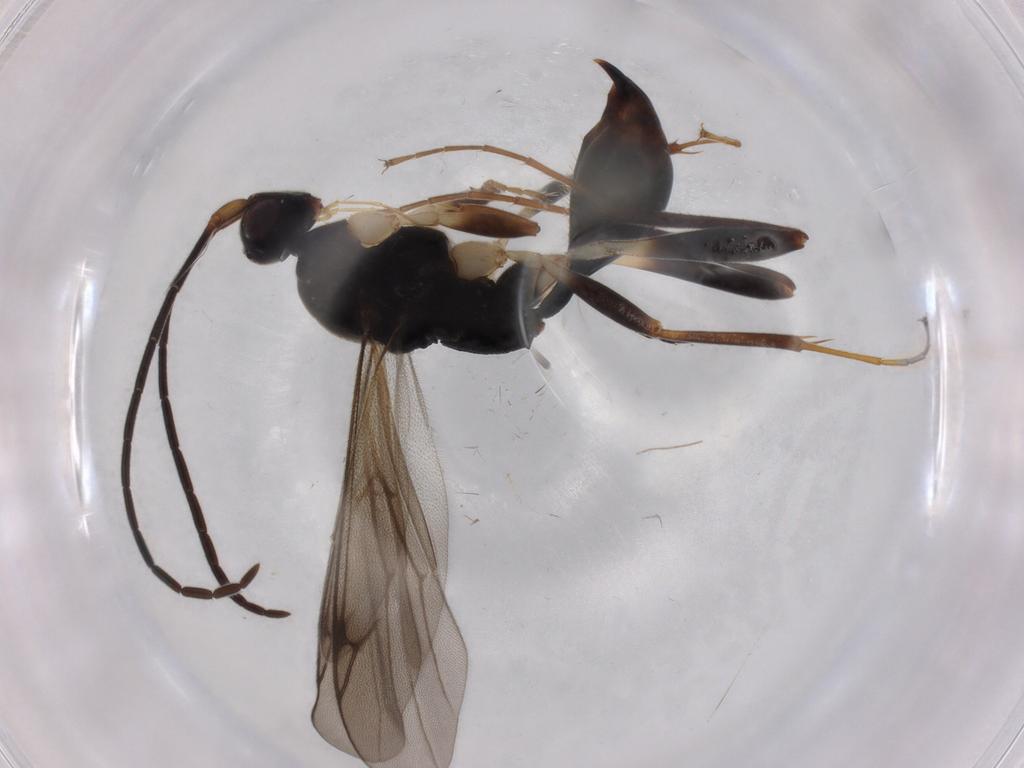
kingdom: Animalia
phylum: Arthropoda
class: Insecta
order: Hymenoptera
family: Proctotrupidae
